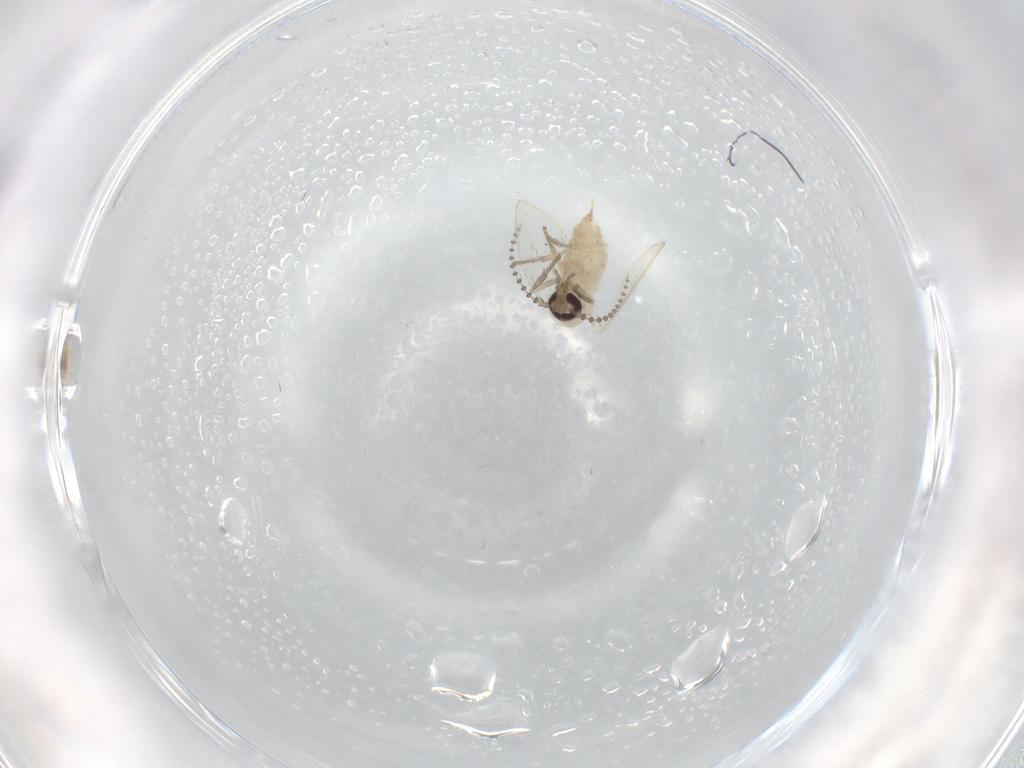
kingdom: Animalia
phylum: Arthropoda
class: Insecta
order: Diptera
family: Psychodidae
